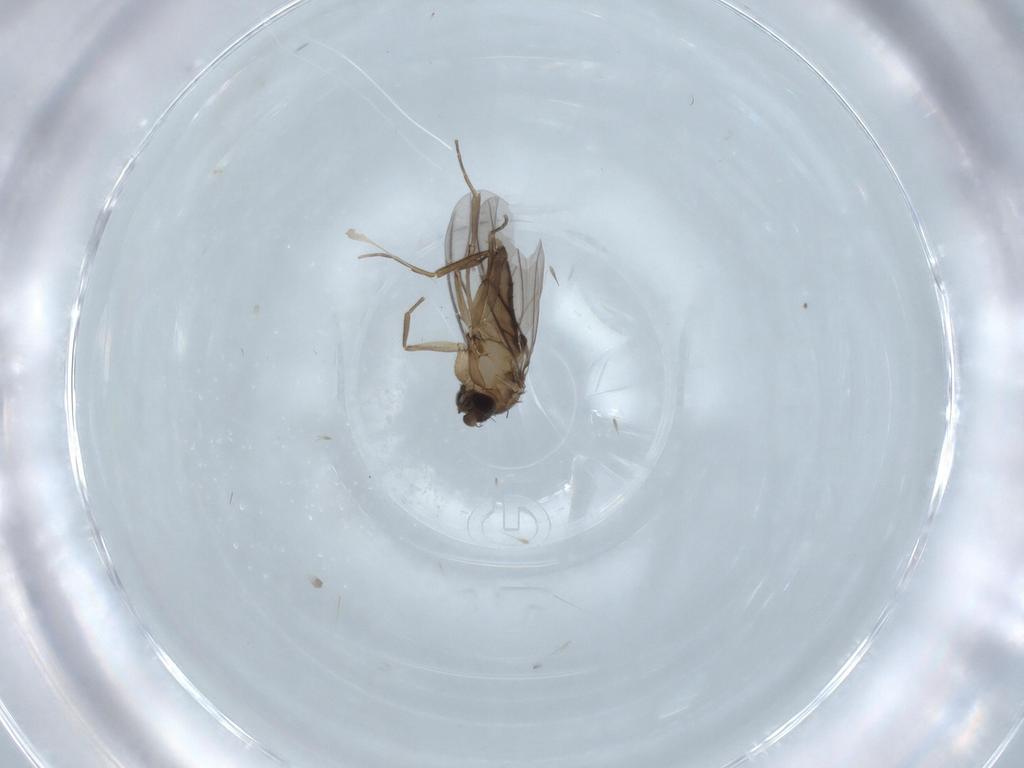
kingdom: Animalia
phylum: Arthropoda
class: Insecta
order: Diptera
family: Phoridae
